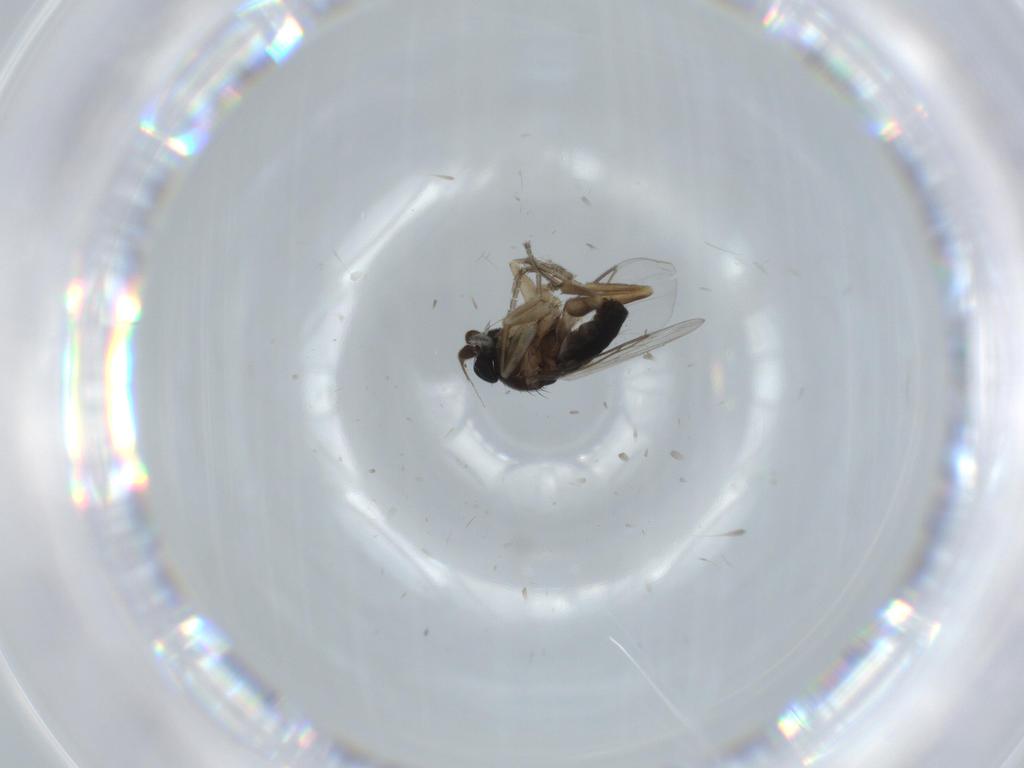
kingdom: Animalia
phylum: Arthropoda
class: Insecta
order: Diptera
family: Phoridae
